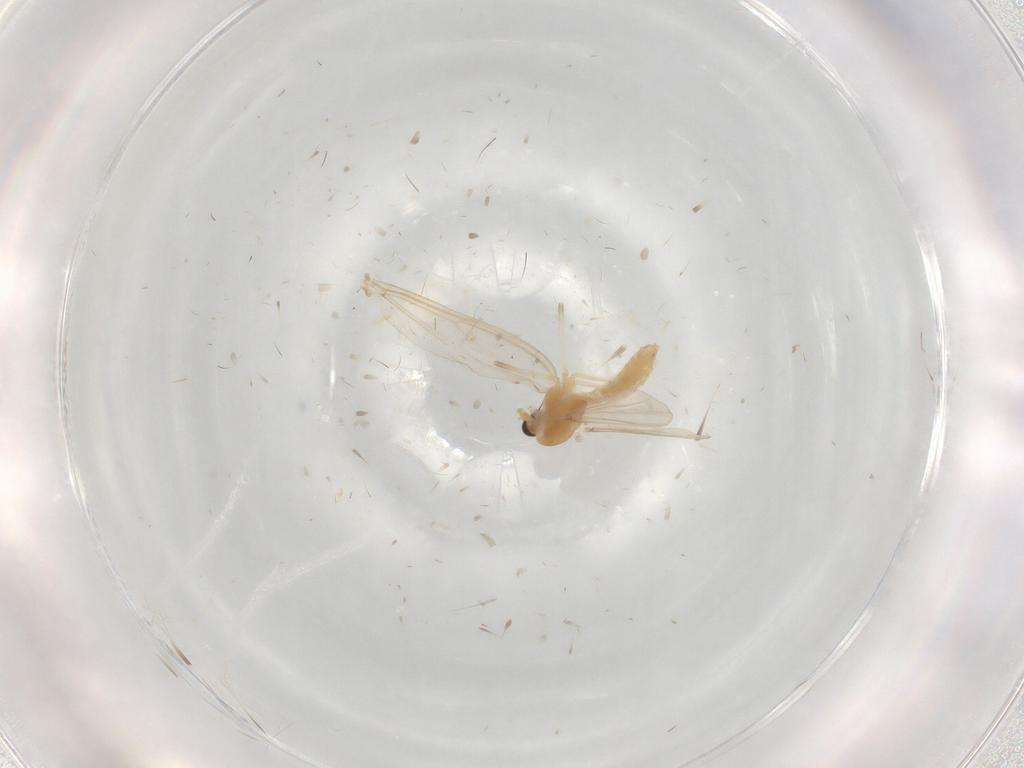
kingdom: Animalia
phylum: Arthropoda
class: Insecta
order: Diptera
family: Chironomidae
